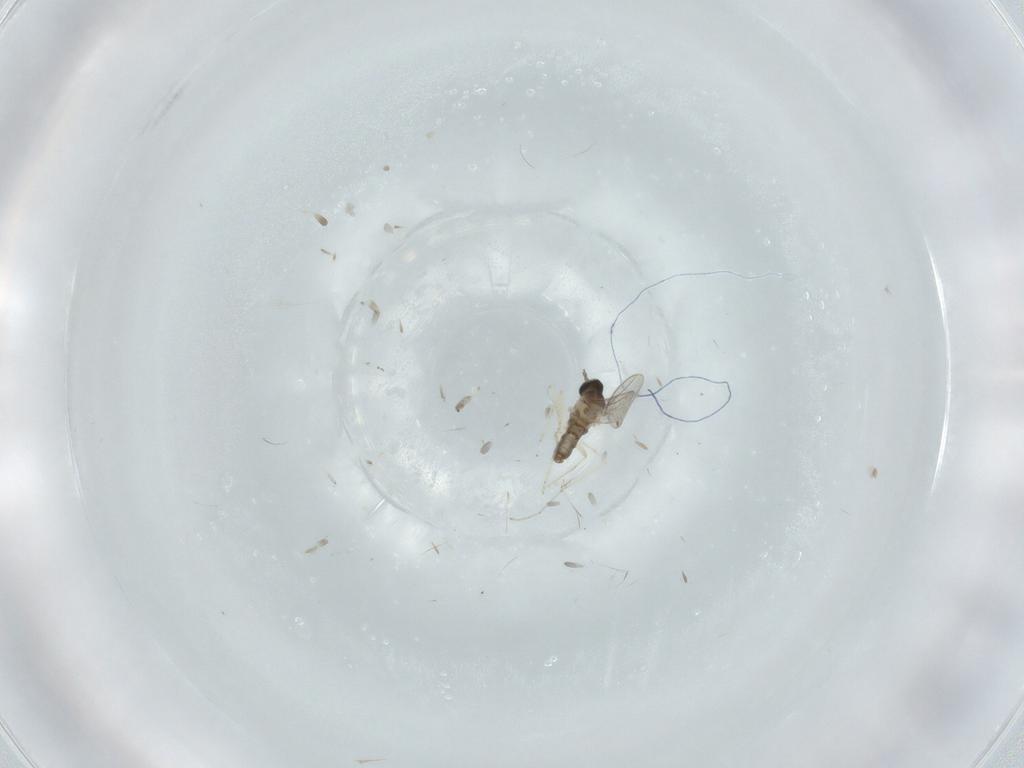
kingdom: Animalia
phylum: Arthropoda
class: Insecta
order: Diptera
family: Cecidomyiidae
